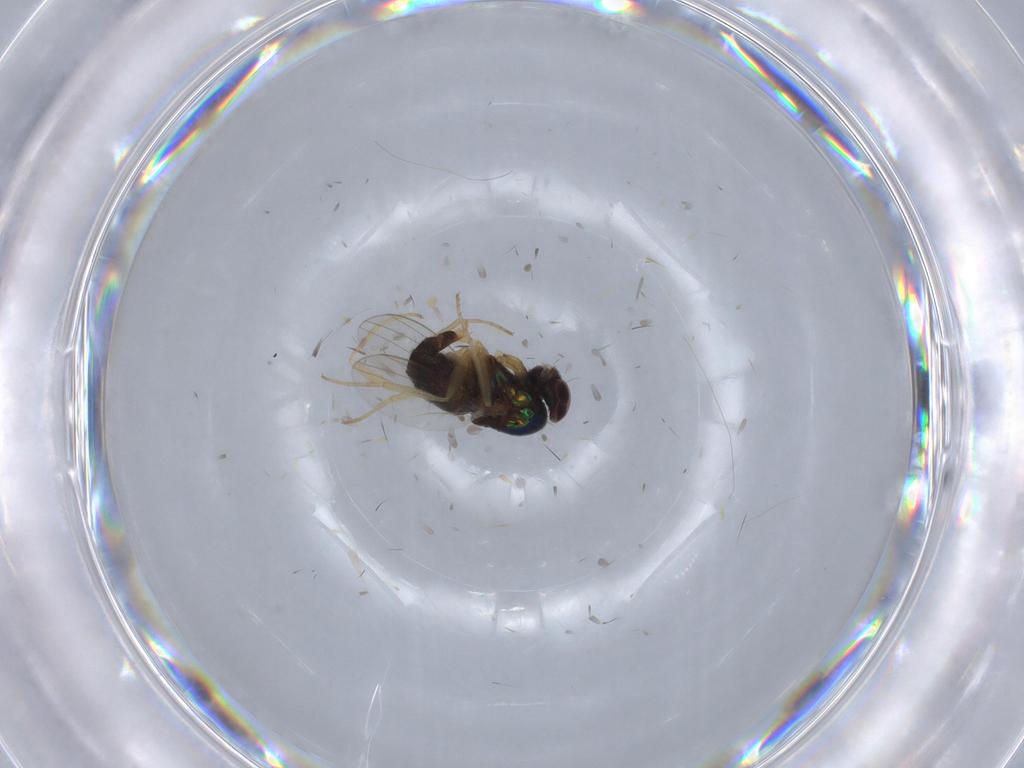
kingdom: Animalia
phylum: Arthropoda
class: Insecta
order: Diptera
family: Dolichopodidae
